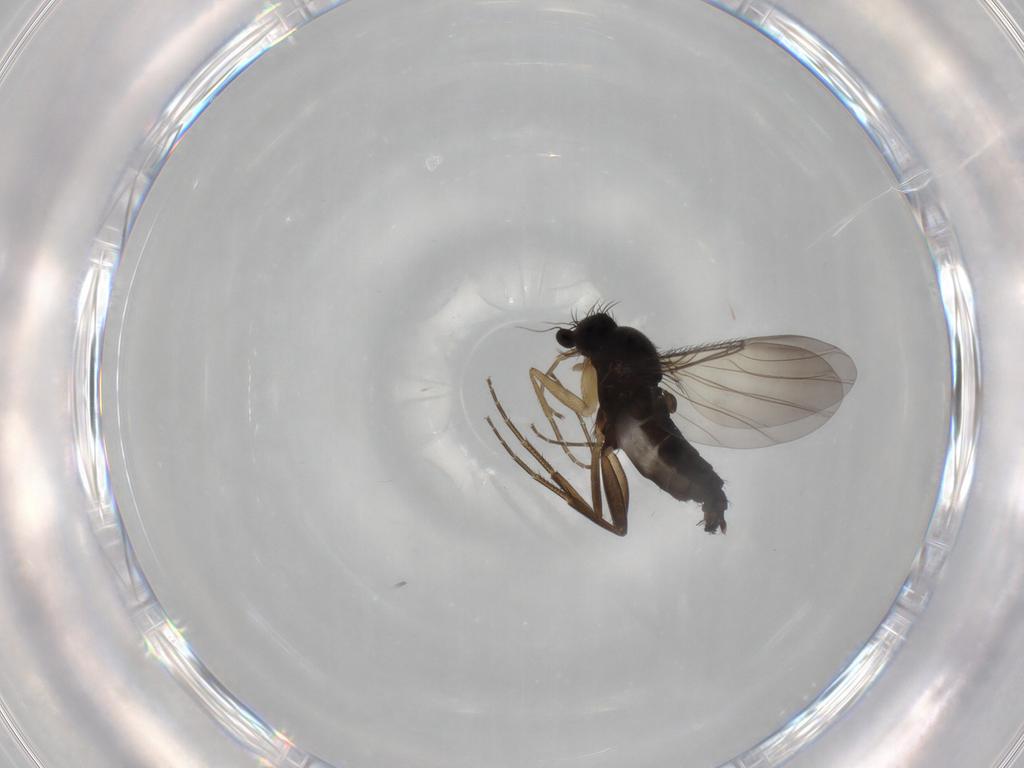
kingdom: Animalia
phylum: Arthropoda
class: Insecta
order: Diptera
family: Phoridae
